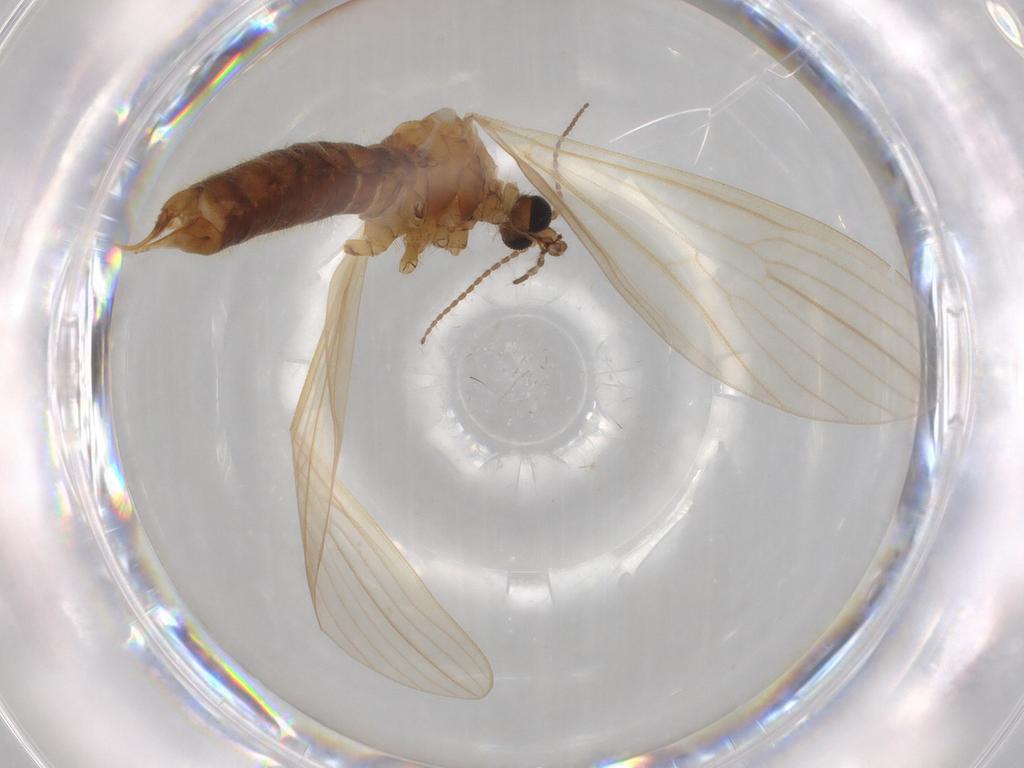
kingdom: Animalia
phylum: Arthropoda
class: Insecta
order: Diptera
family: Limoniidae
